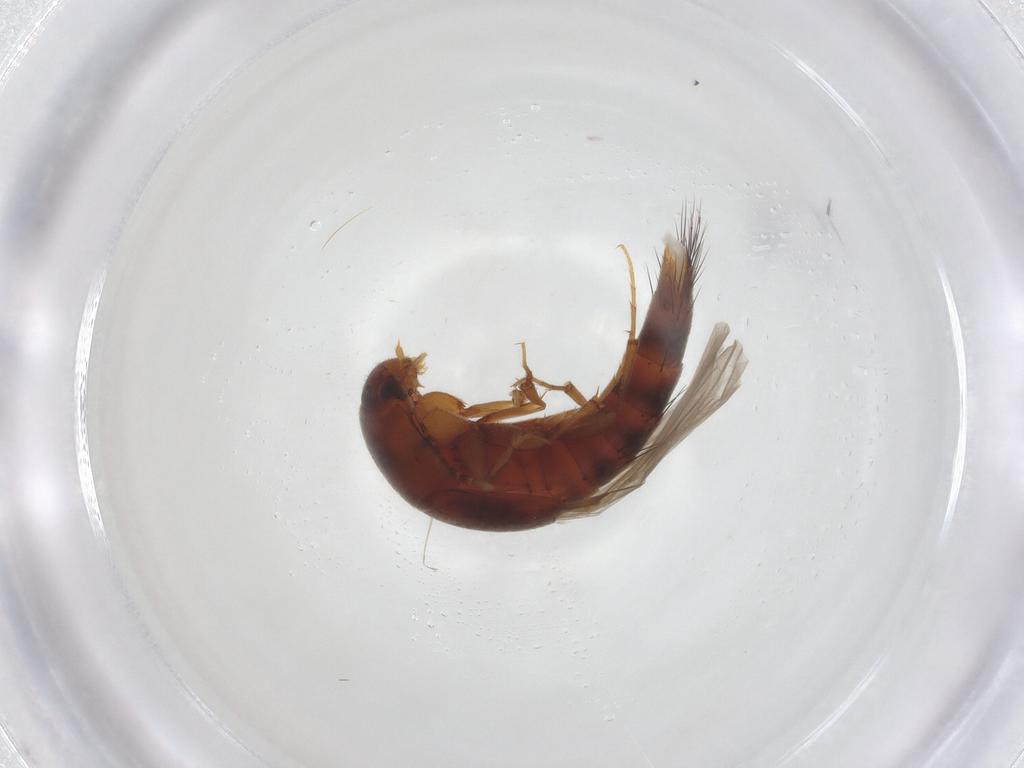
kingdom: Animalia
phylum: Arthropoda
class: Insecta
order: Coleoptera
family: Staphylinidae
